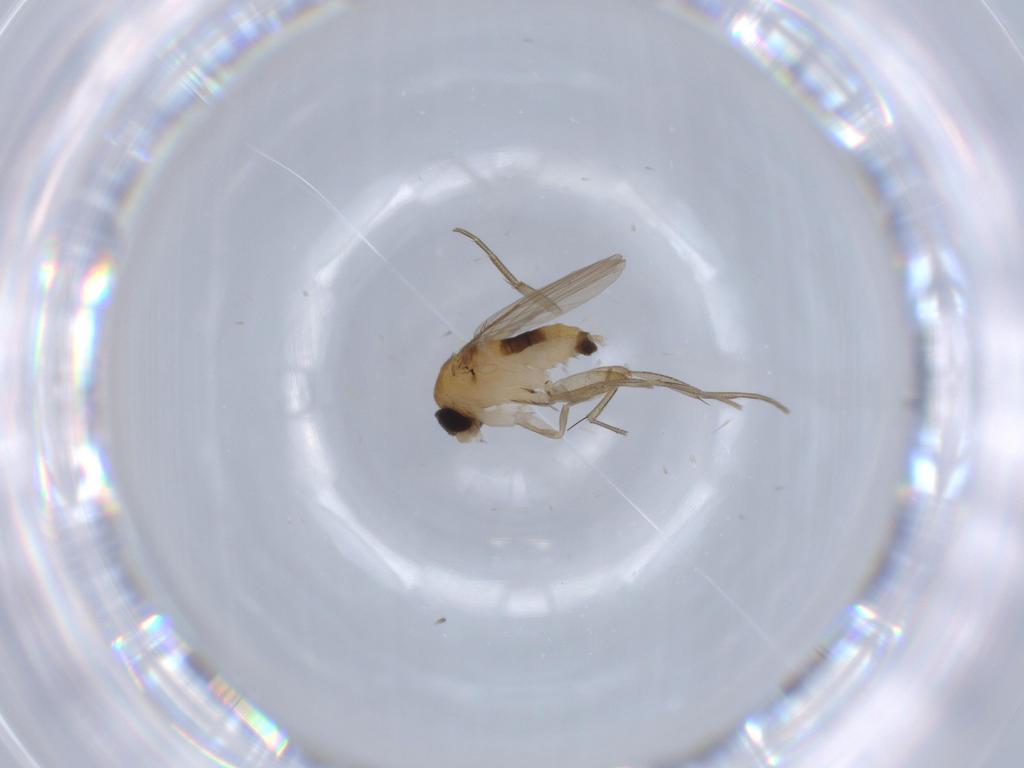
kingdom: Animalia
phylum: Arthropoda
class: Insecta
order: Diptera
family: Phoridae
